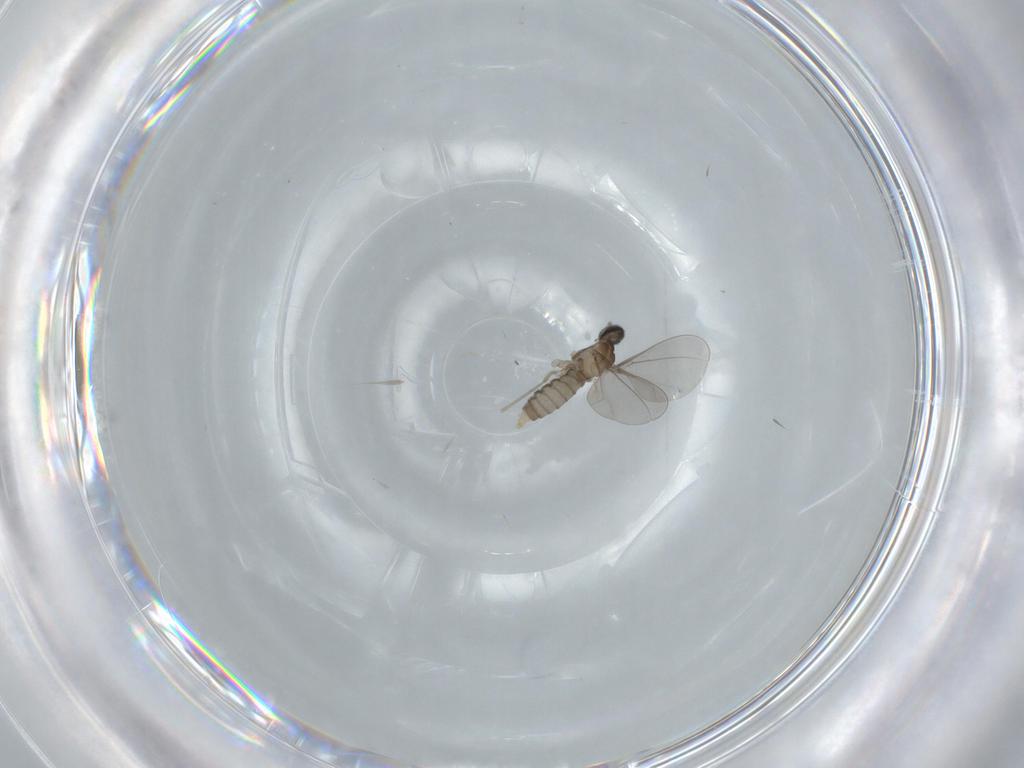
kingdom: Animalia
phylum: Arthropoda
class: Insecta
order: Diptera
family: Cecidomyiidae
